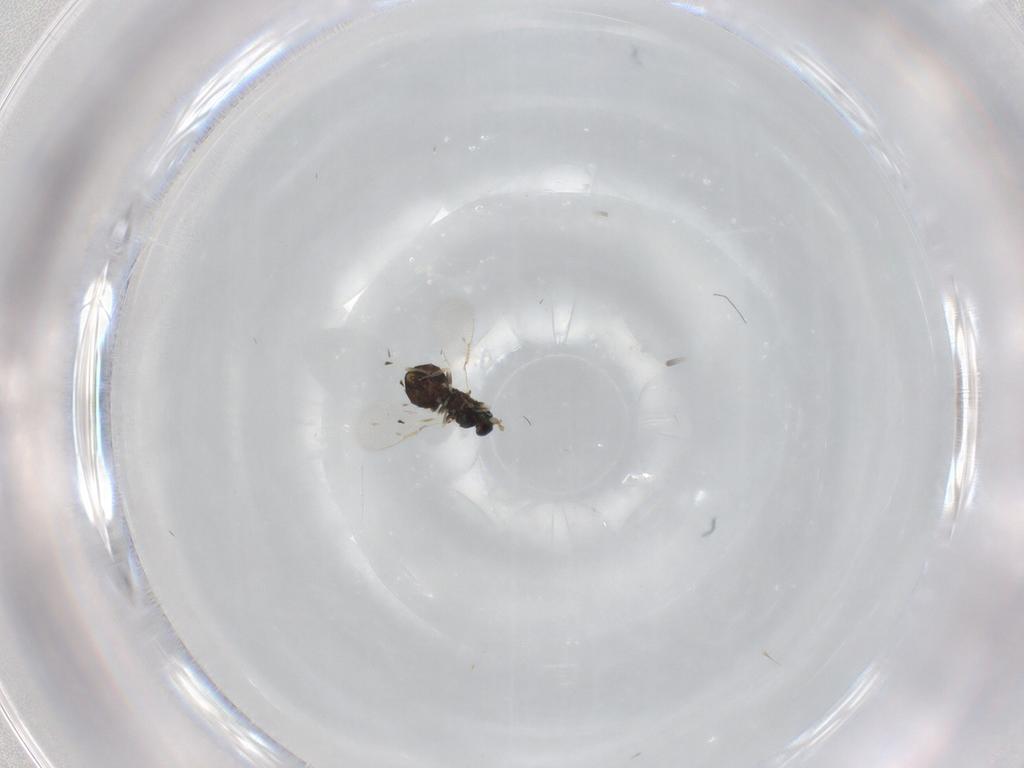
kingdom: Animalia
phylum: Arthropoda
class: Insecta
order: Hymenoptera
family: Eulophidae
